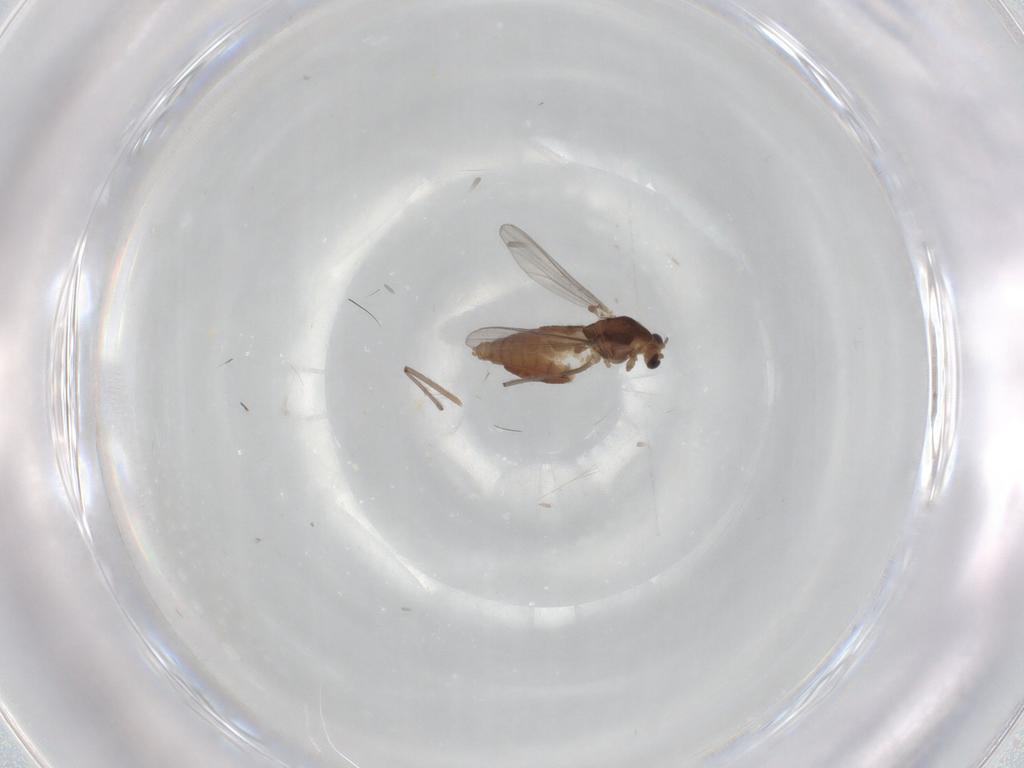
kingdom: Animalia
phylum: Arthropoda
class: Insecta
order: Diptera
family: Chironomidae
